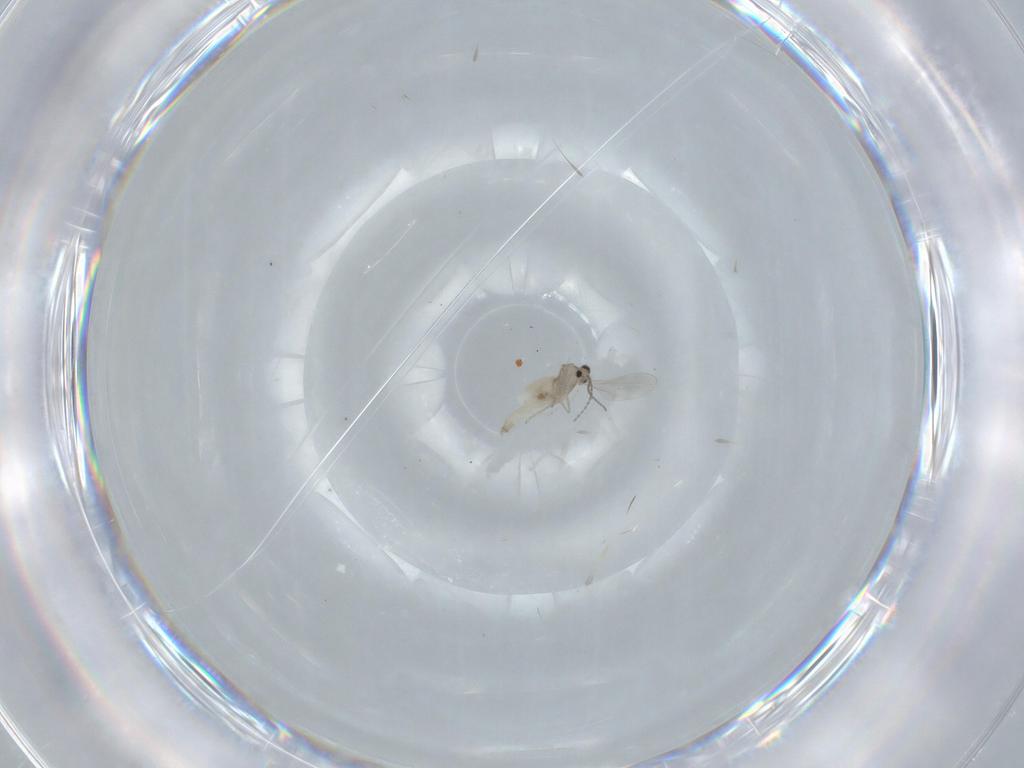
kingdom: Animalia
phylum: Arthropoda
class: Insecta
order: Diptera
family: Cecidomyiidae
